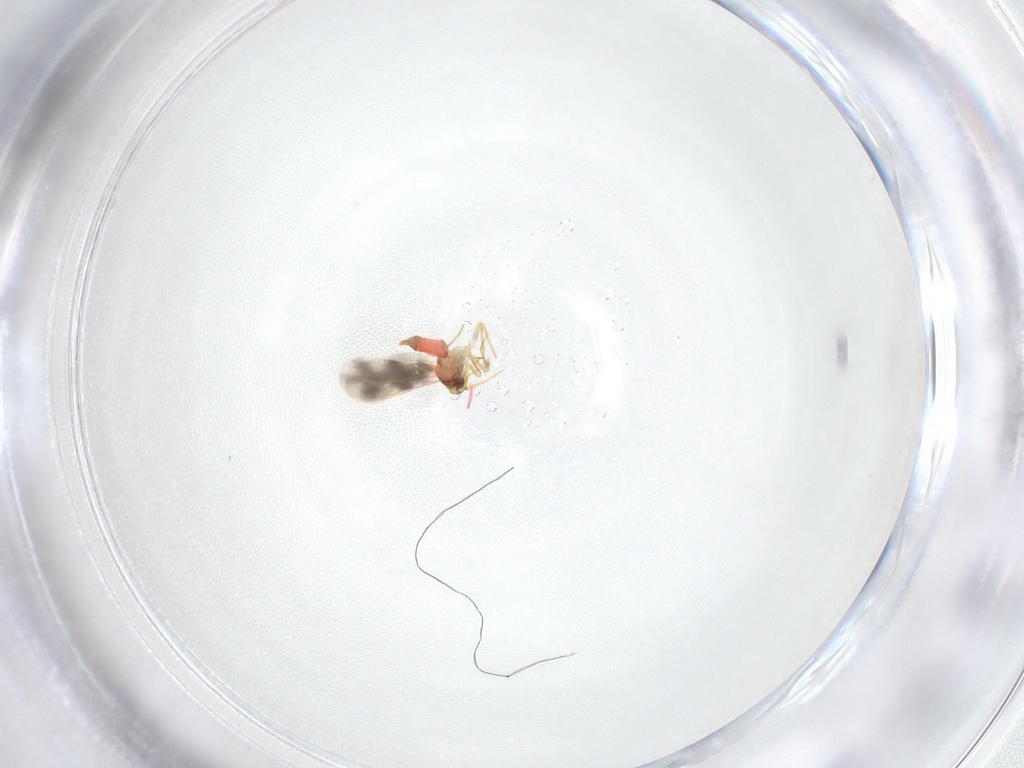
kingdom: Animalia
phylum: Arthropoda
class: Insecta
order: Hemiptera
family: Aleyrodidae
